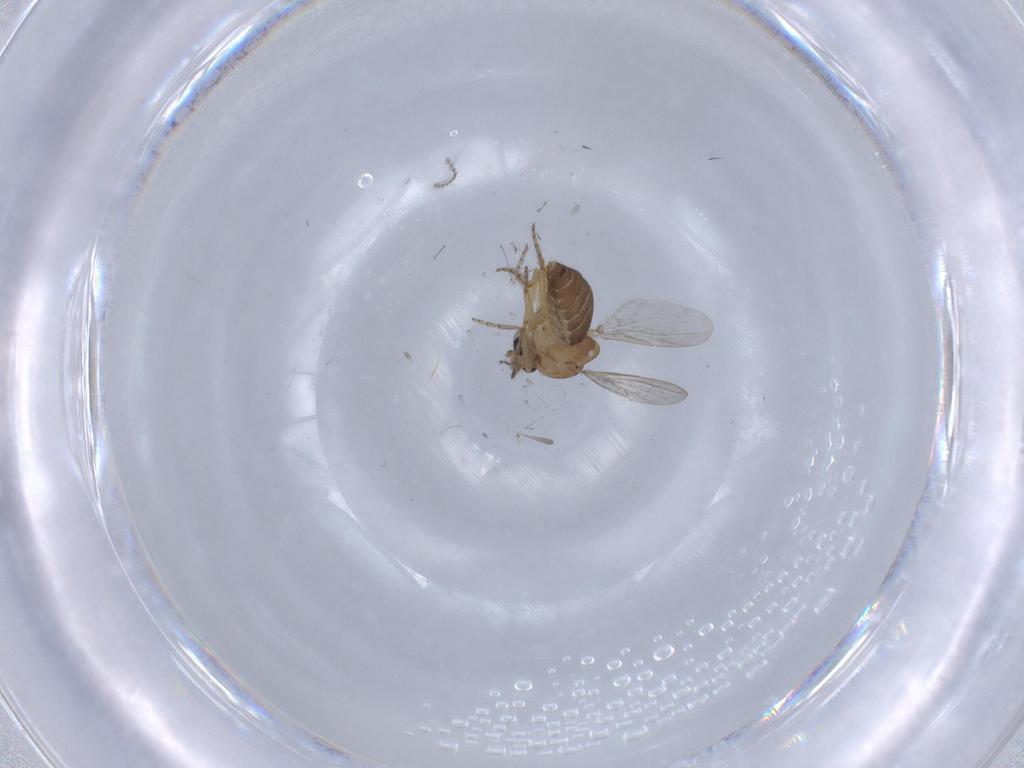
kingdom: Animalia
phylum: Arthropoda
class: Insecta
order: Diptera
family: Ceratopogonidae
